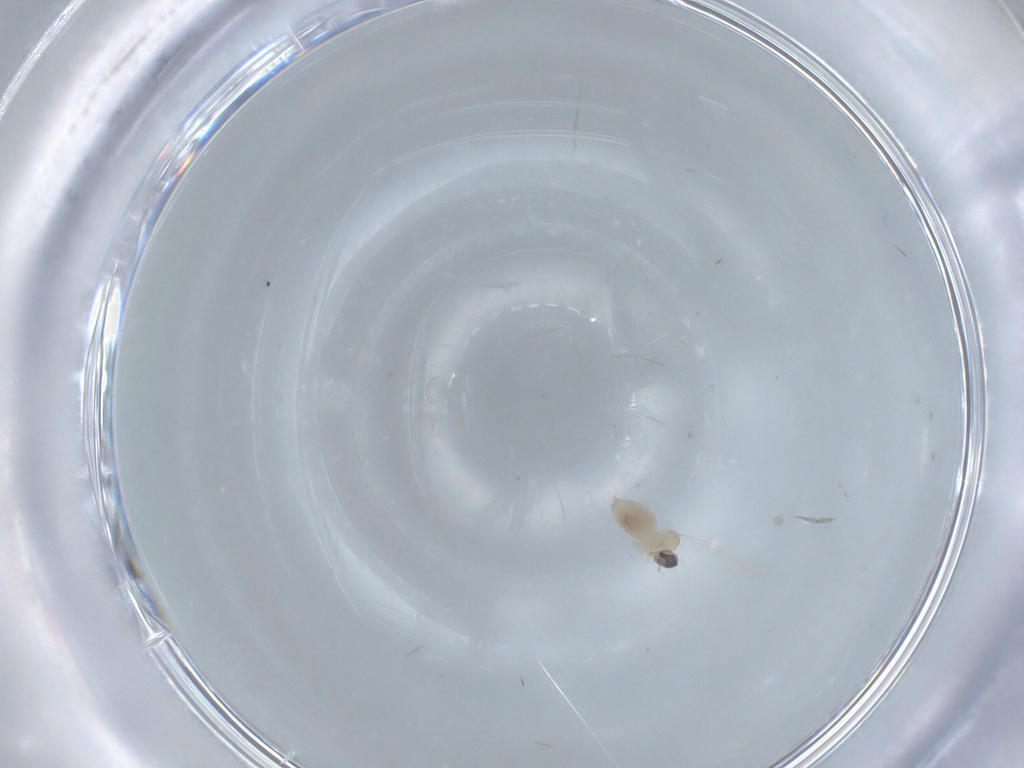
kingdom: Animalia
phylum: Arthropoda
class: Insecta
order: Diptera
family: Cecidomyiidae
